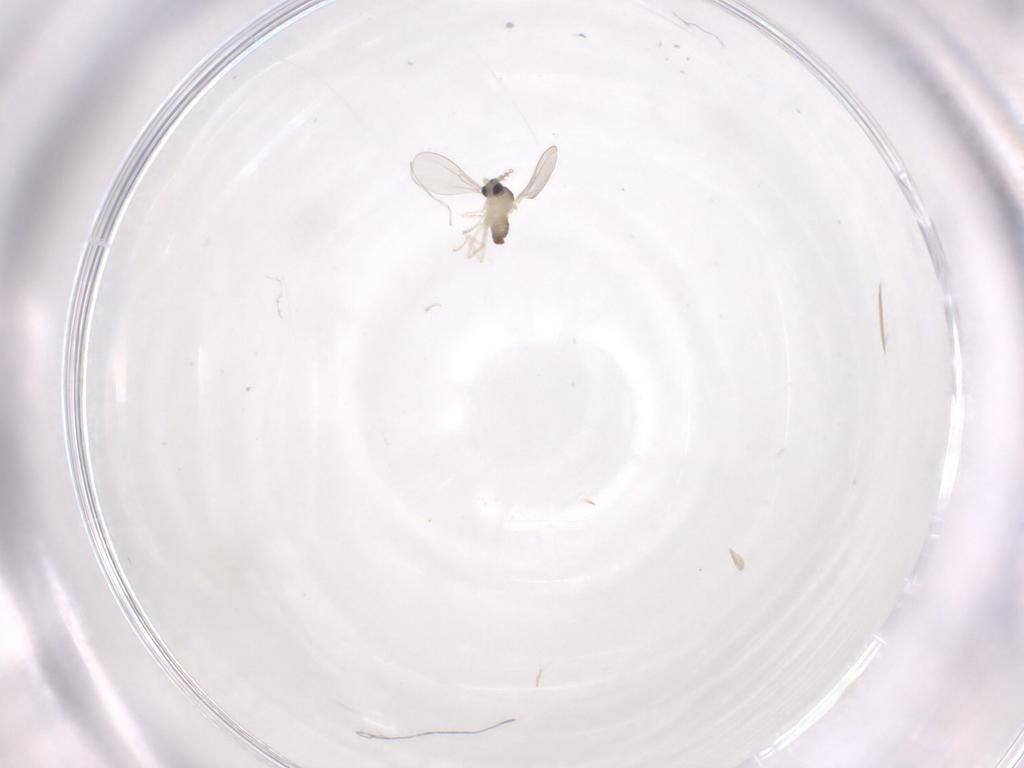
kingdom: Animalia
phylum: Arthropoda
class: Insecta
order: Diptera
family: Cecidomyiidae
